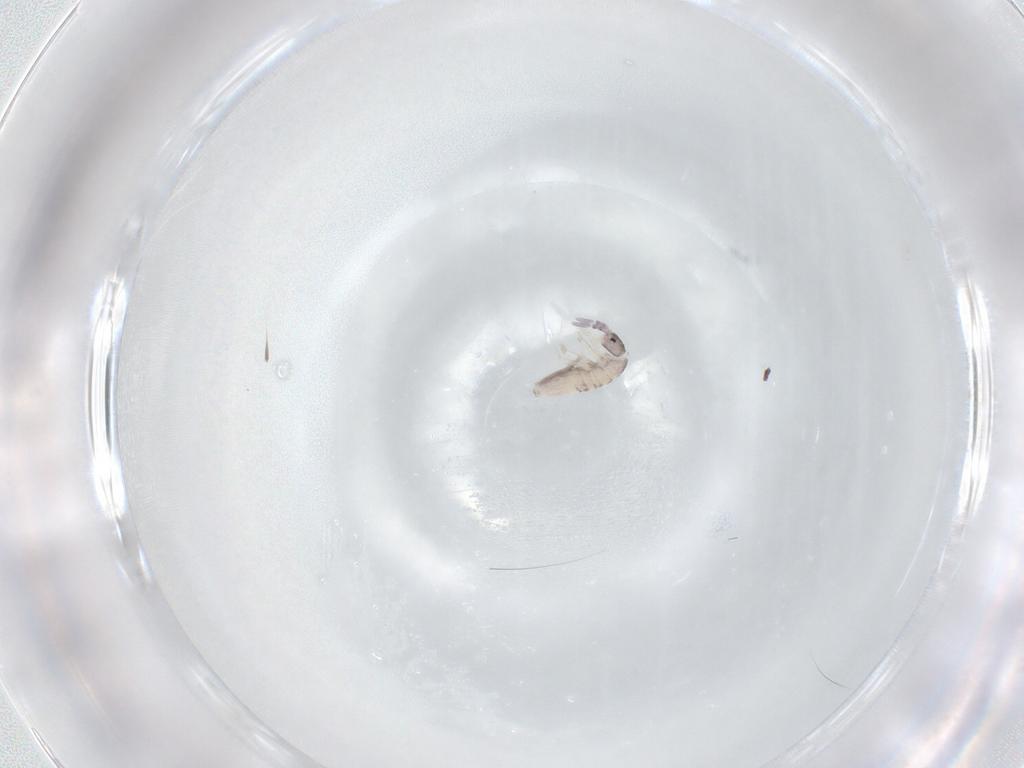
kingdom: Animalia
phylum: Arthropoda
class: Collembola
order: Entomobryomorpha
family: Entomobryidae
